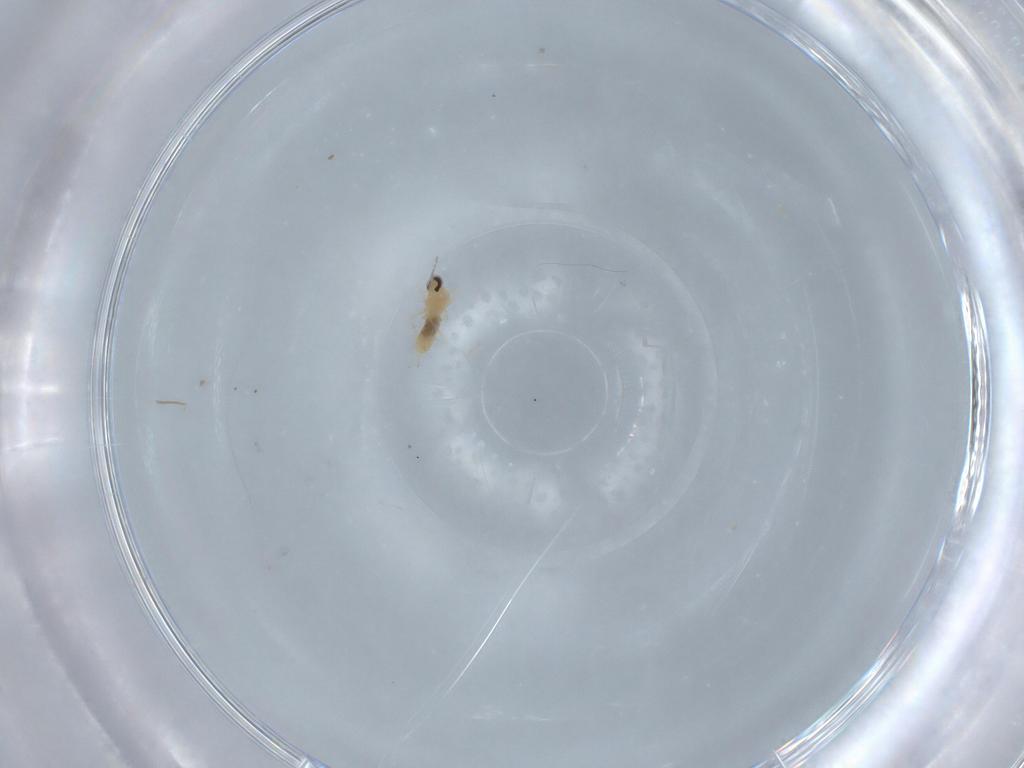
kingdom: Animalia
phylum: Arthropoda
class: Insecta
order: Diptera
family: Cecidomyiidae
